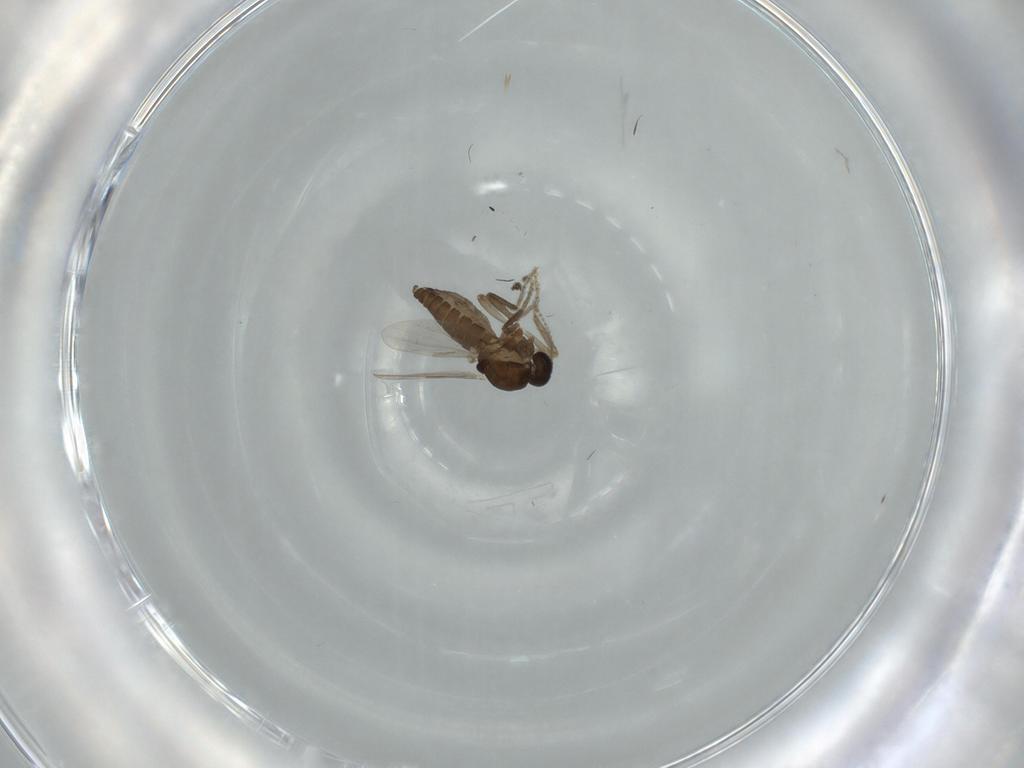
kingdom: Animalia
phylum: Arthropoda
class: Insecta
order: Diptera
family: Ceratopogonidae
